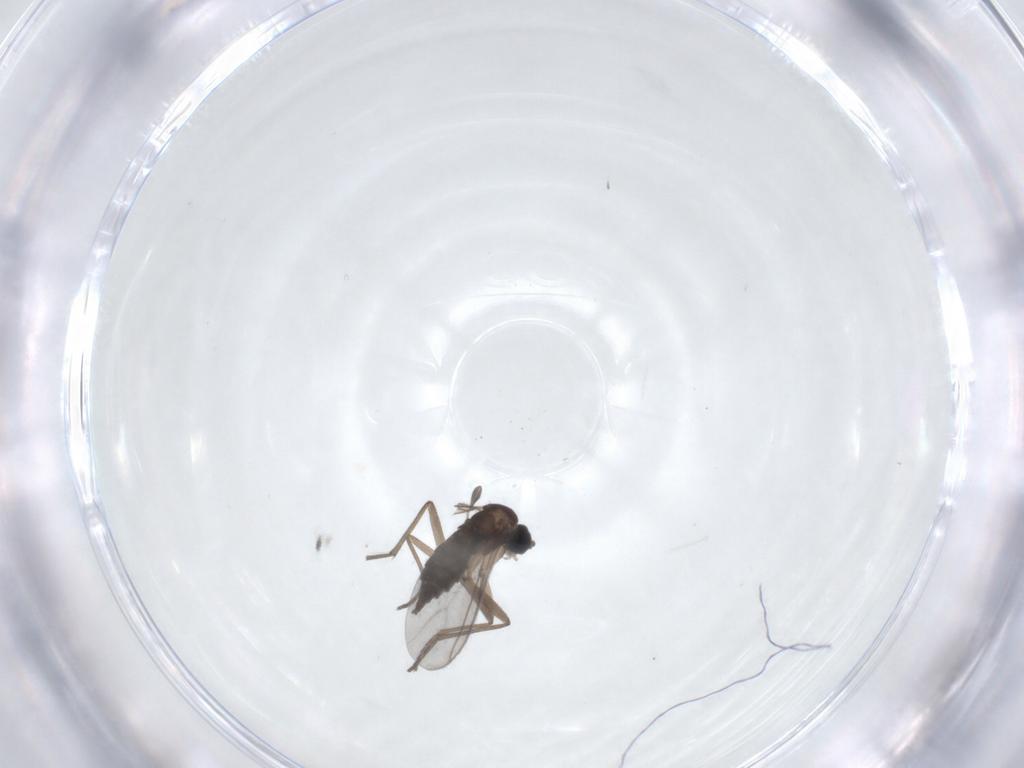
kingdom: Animalia
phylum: Arthropoda
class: Insecta
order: Diptera
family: Sciaridae
